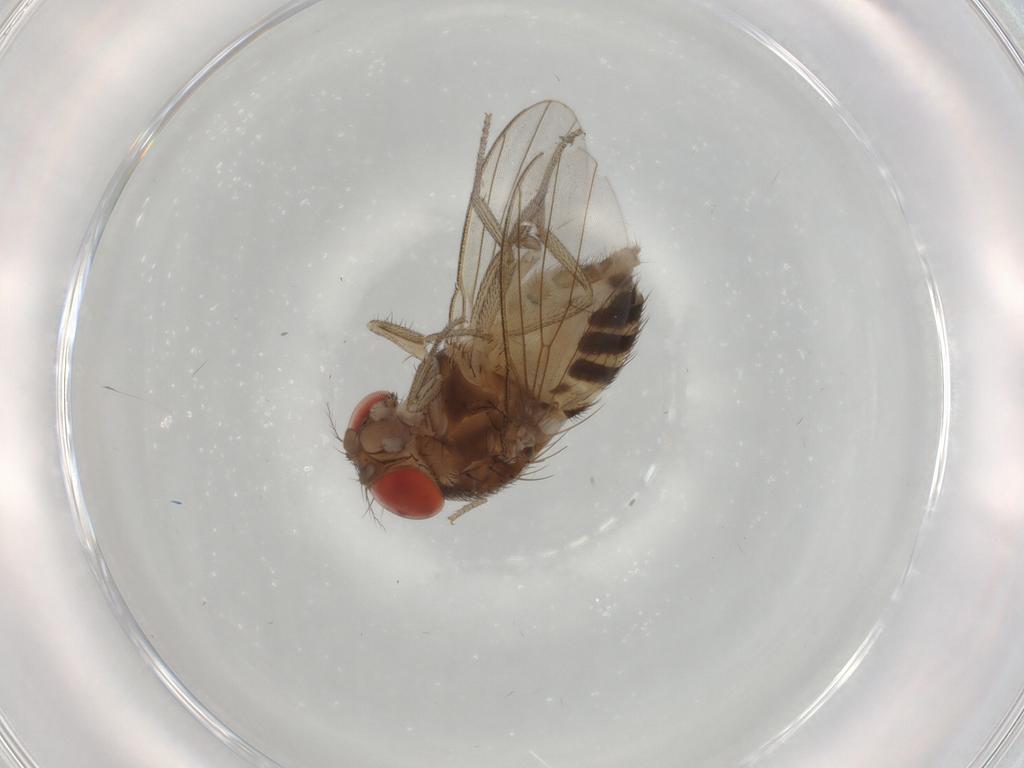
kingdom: Animalia
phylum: Arthropoda
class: Insecta
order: Diptera
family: Drosophilidae
